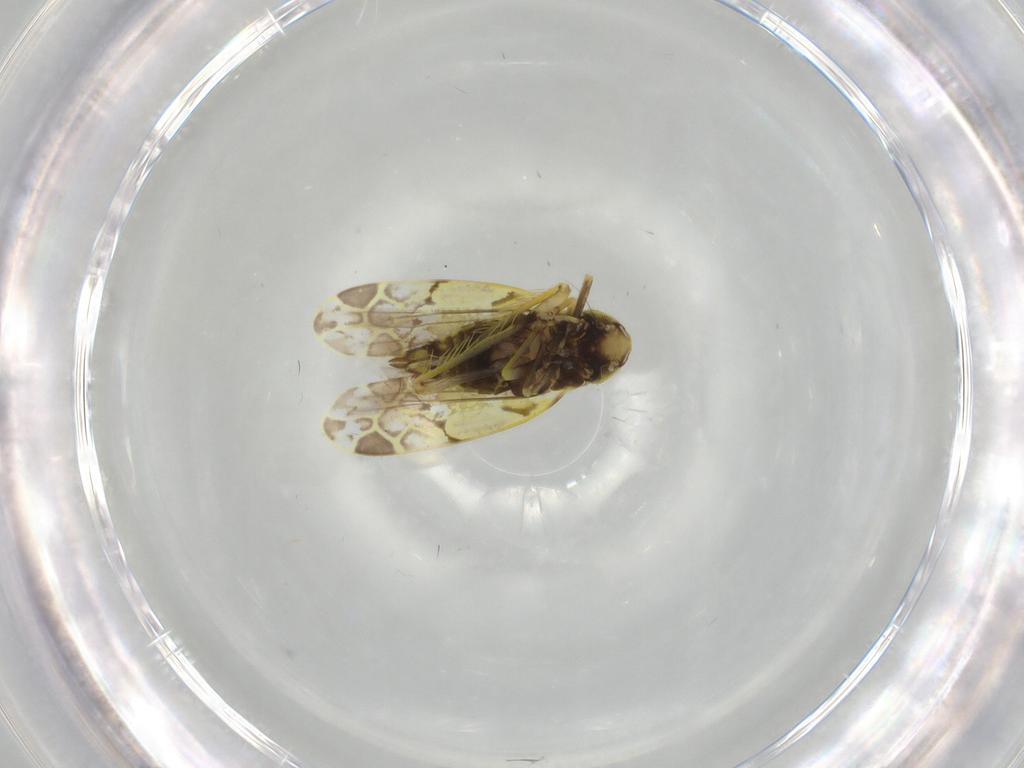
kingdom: Animalia
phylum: Arthropoda
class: Insecta
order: Hemiptera
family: Cicadellidae
